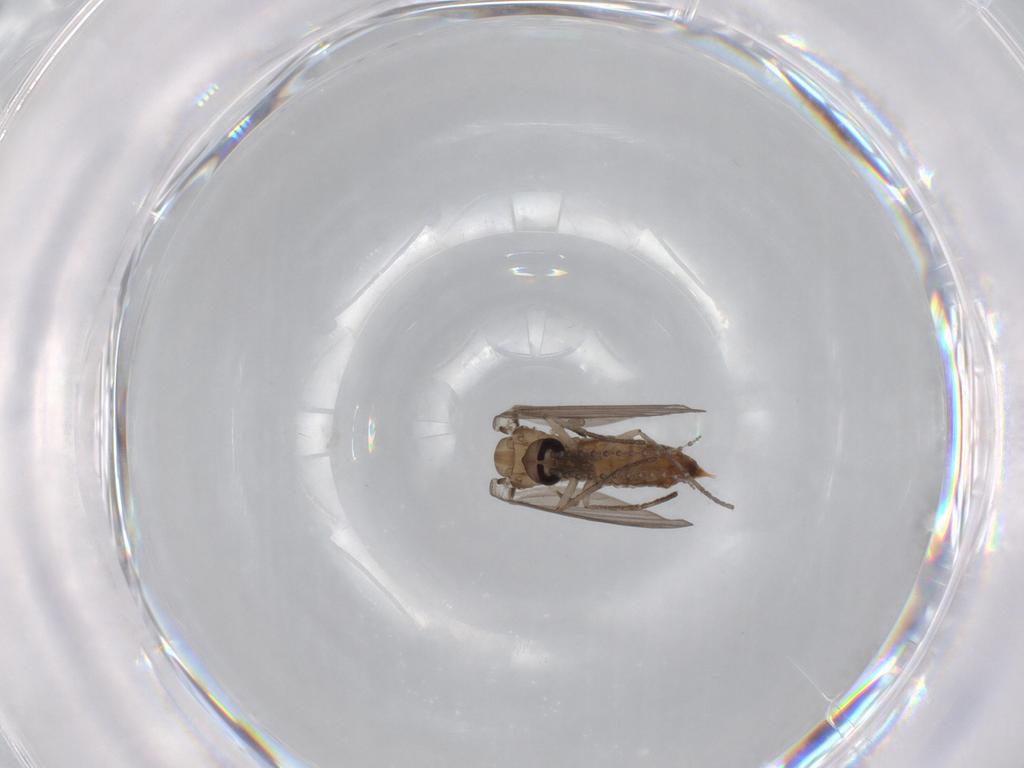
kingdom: Animalia
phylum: Arthropoda
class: Insecta
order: Diptera
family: Psychodidae
